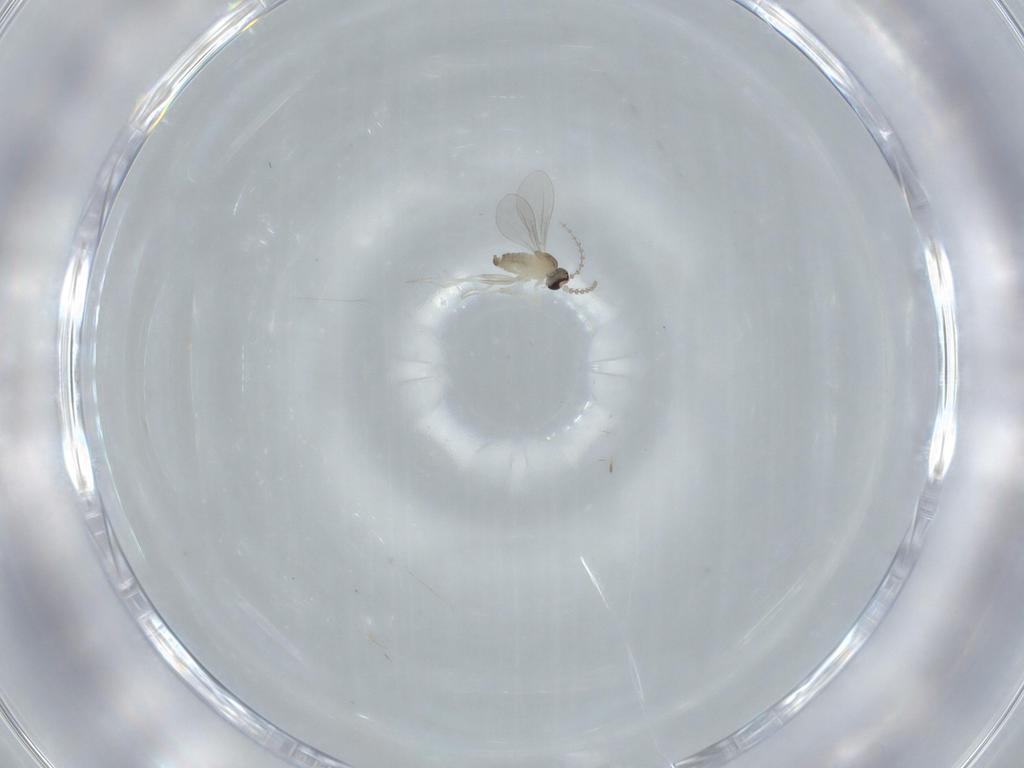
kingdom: Animalia
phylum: Arthropoda
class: Insecta
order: Diptera
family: Cecidomyiidae
